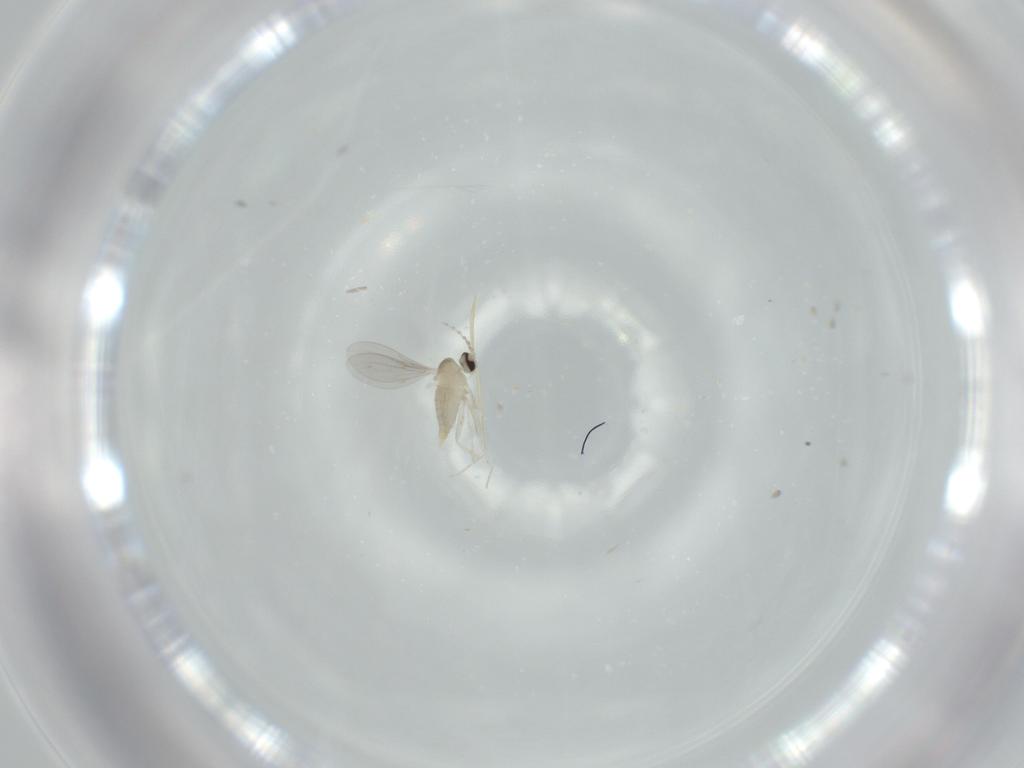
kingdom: Animalia
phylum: Arthropoda
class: Insecta
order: Diptera
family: Cecidomyiidae
